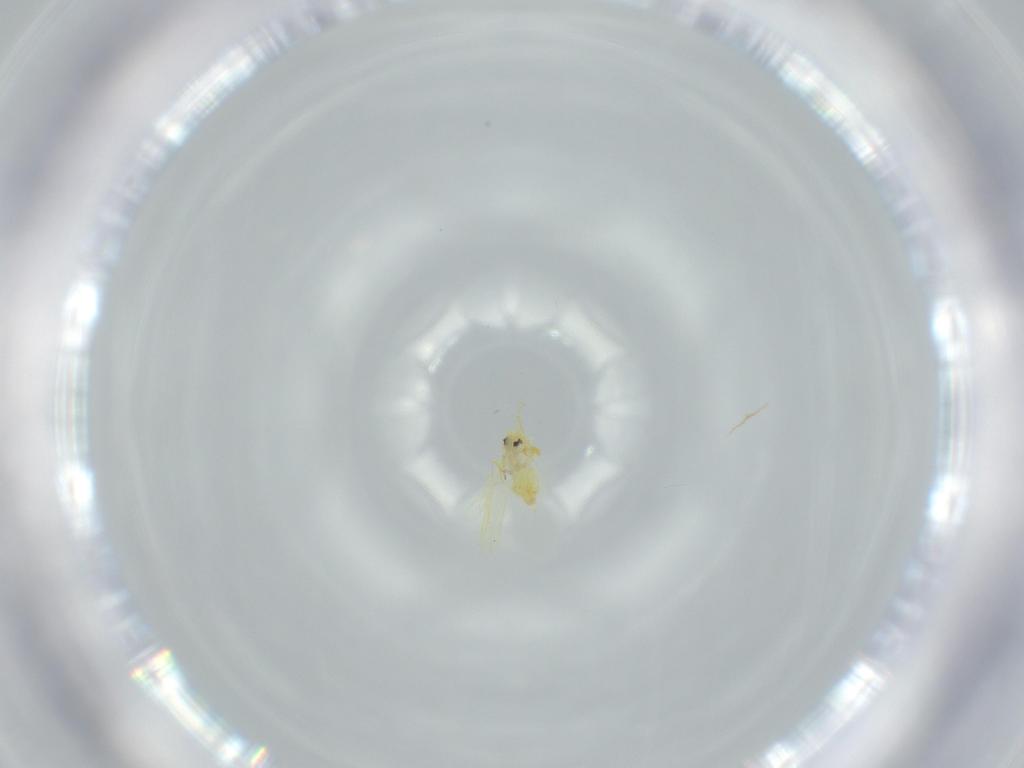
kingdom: Animalia
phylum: Arthropoda
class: Insecta
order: Hemiptera
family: Aleyrodidae
